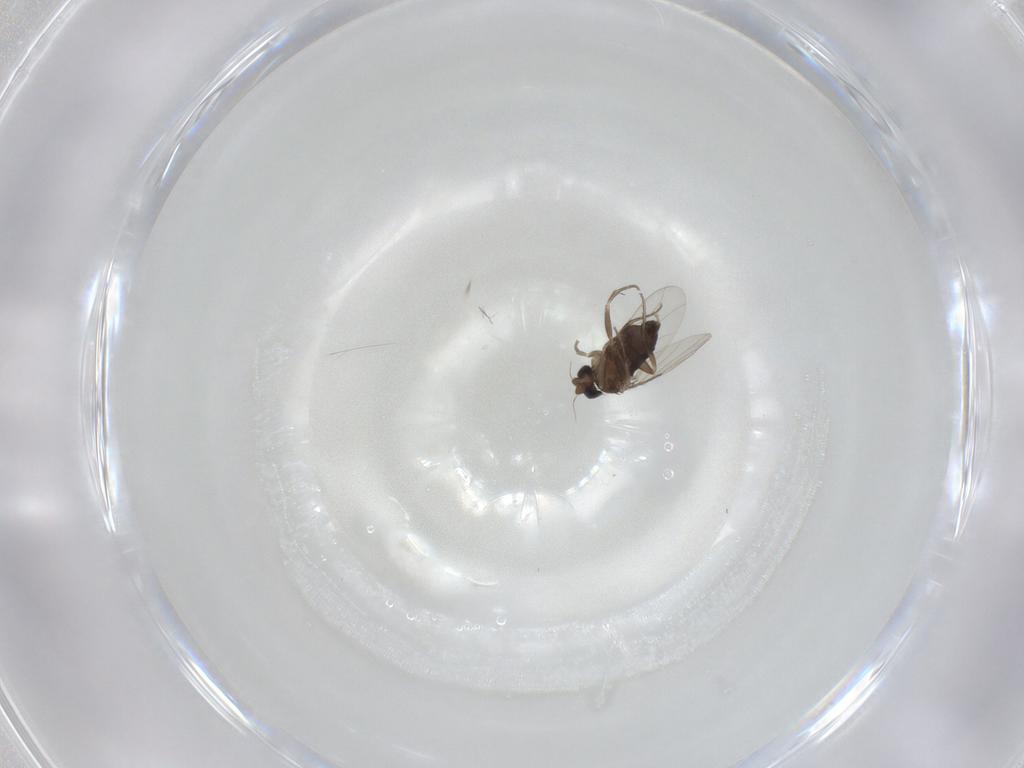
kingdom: Animalia
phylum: Arthropoda
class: Insecta
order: Diptera
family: Phoridae
